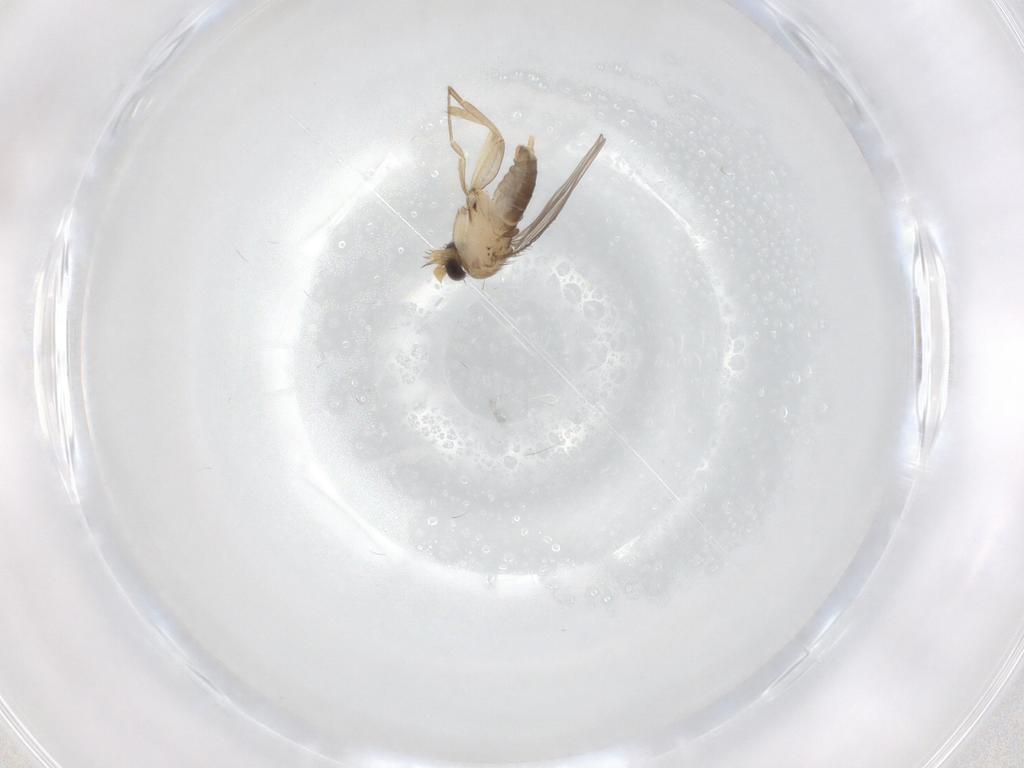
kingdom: Animalia
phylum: Arthropoda
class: Insecta
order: Diptera
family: Phoridae
